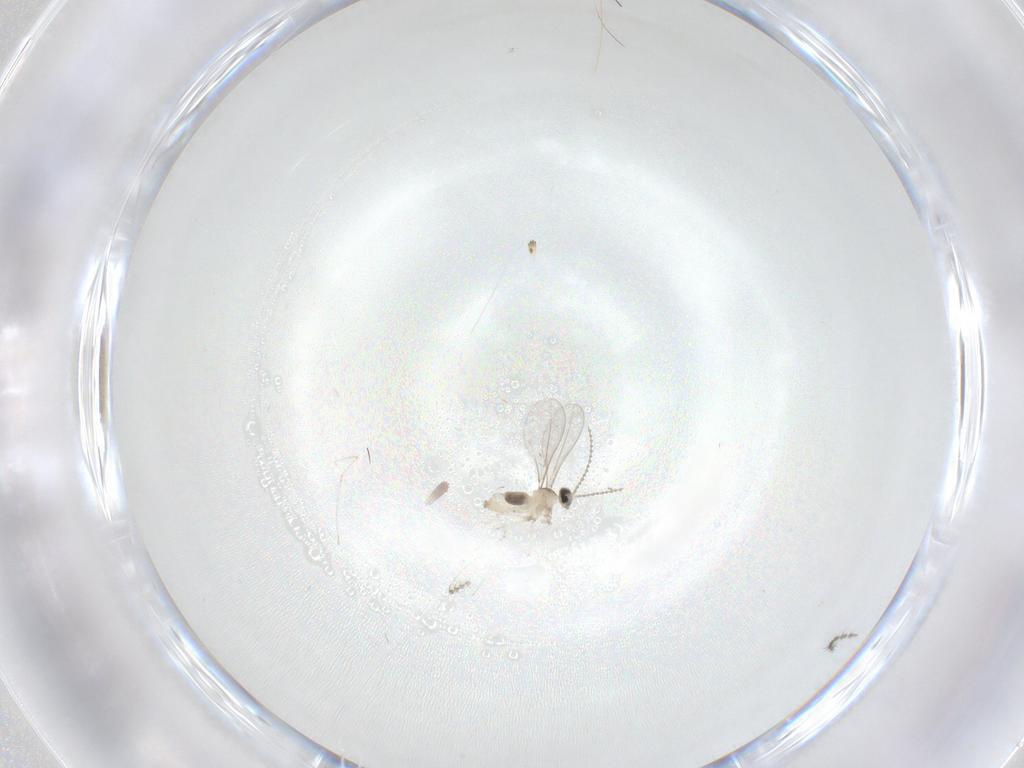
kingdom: Animalia
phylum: Arthropoda
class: Insecta
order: Diptera
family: Cecidomyiidae
